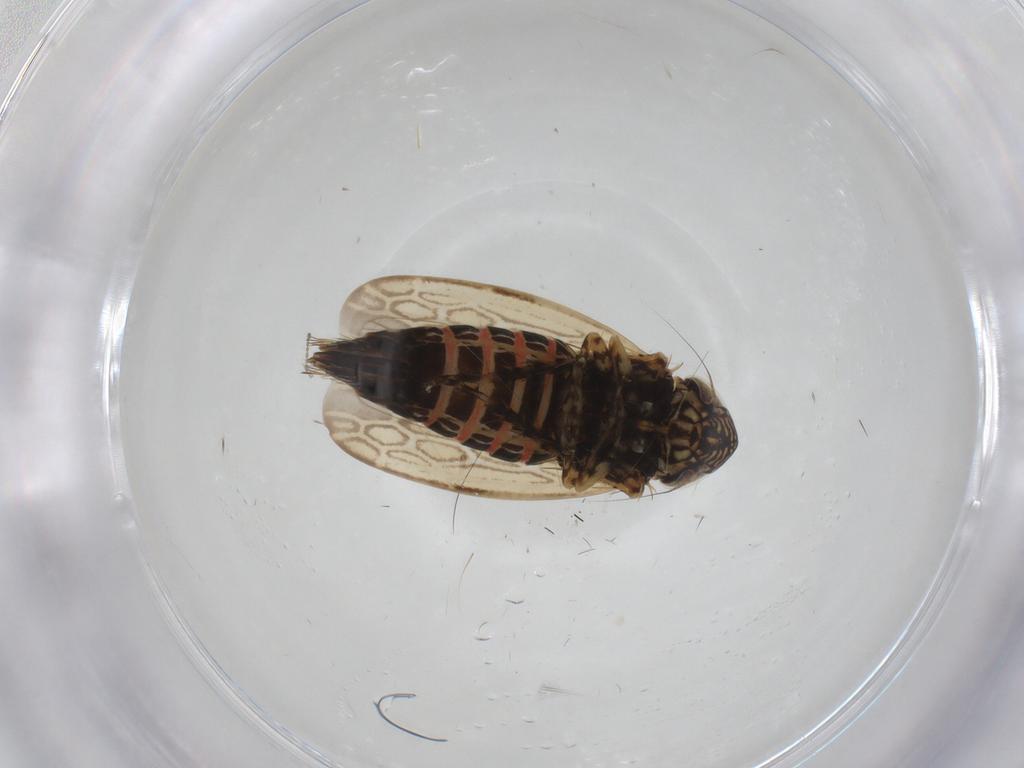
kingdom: Animalia
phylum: Arthropoda
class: Insecta
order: Hemiptera
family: Cicadellidae
